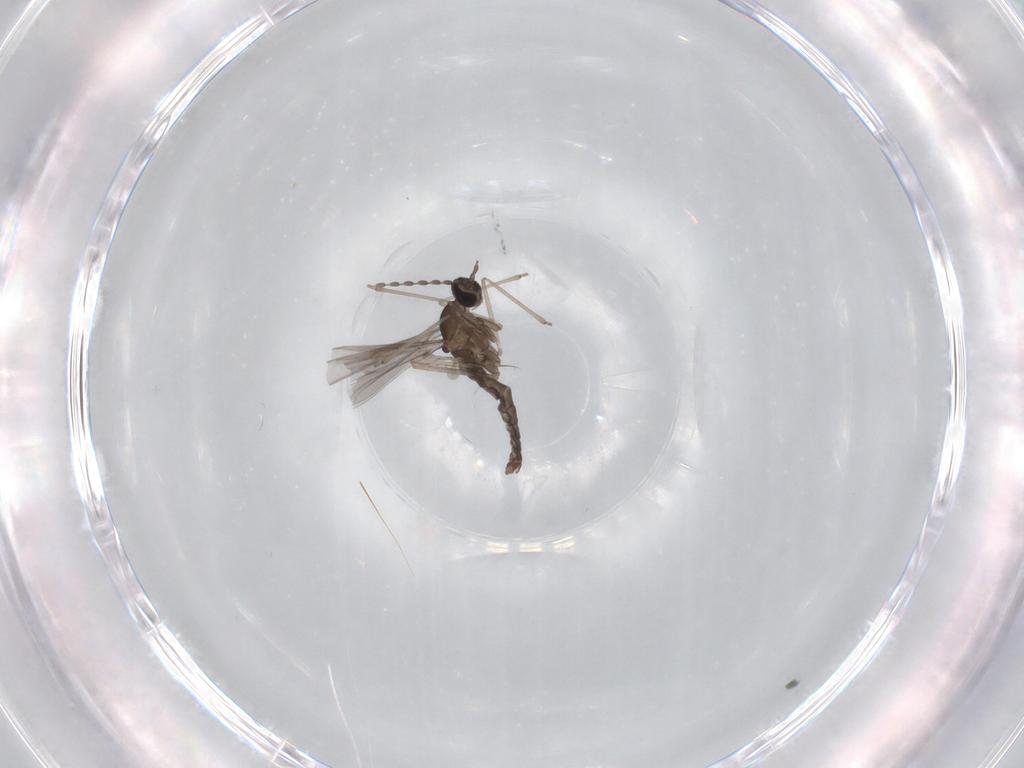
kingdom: Animalia
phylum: Arthropoda
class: Insecta
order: Diptera
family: Cecidomyiidae
